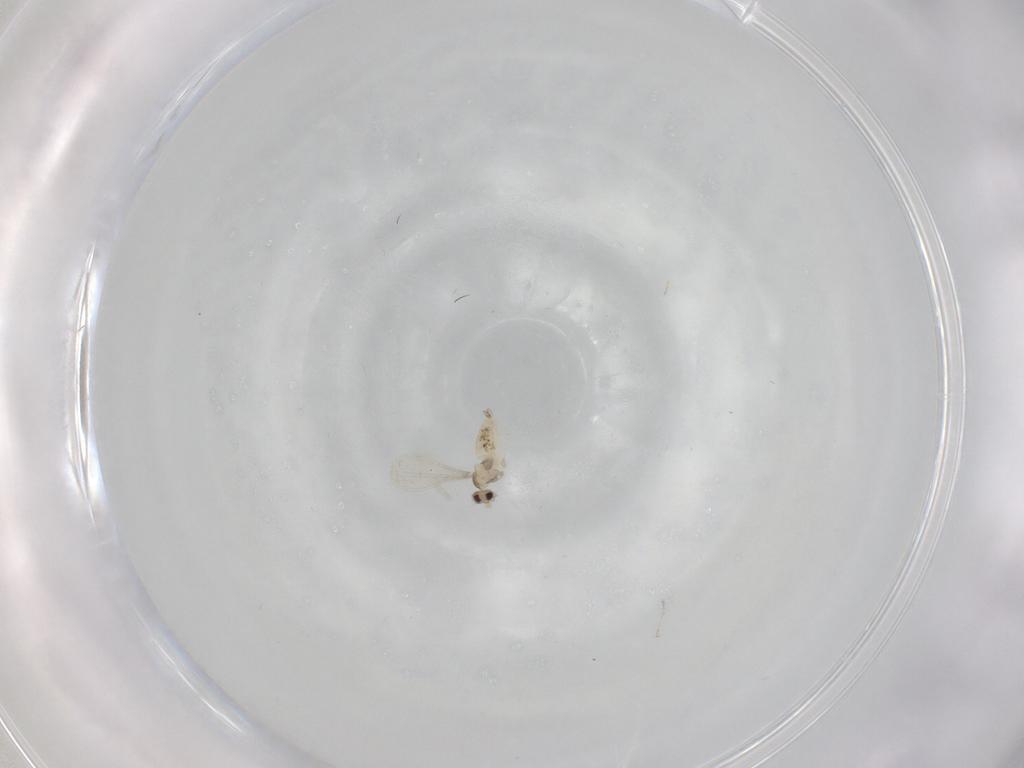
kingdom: Animalia
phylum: Arthropoda
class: Insecta
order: Diptera
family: Cecidomyiidae
